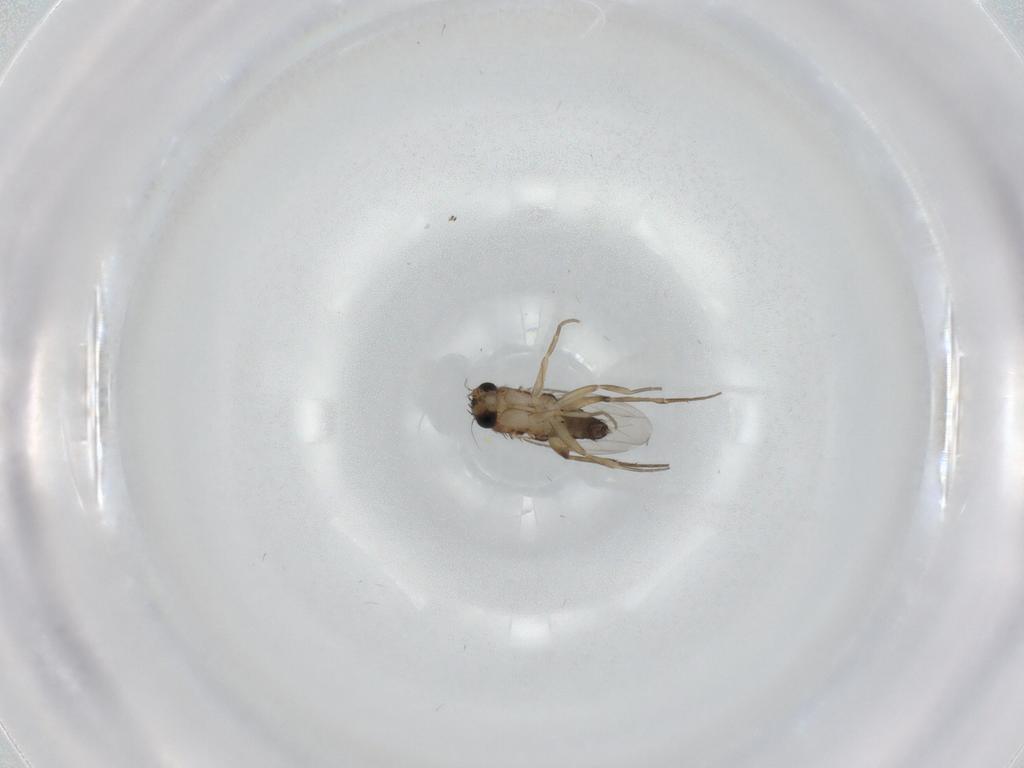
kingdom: Animalia
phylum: Arthropoda
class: Insecta
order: Diptera
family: Phoridae
